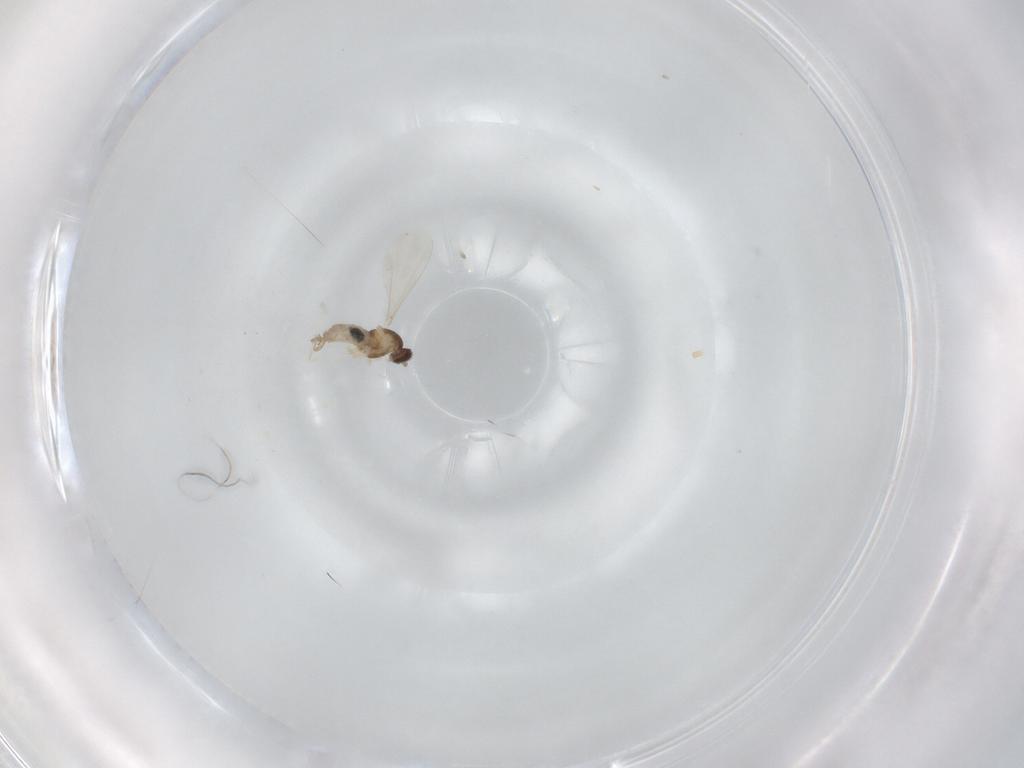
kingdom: Animalia
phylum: Arthropoda
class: Insecta
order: Diptera
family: Cecidomyiidae
